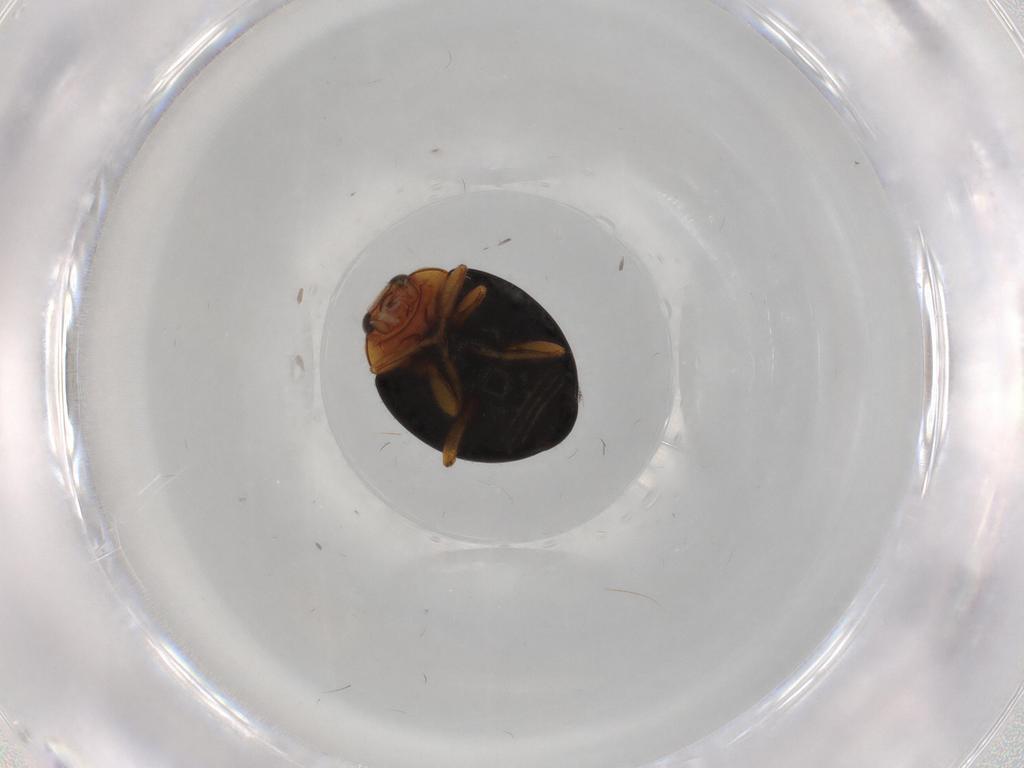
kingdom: Animalia
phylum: Arthropoda
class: Insecta
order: Coleoptera
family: Coccinellidae
